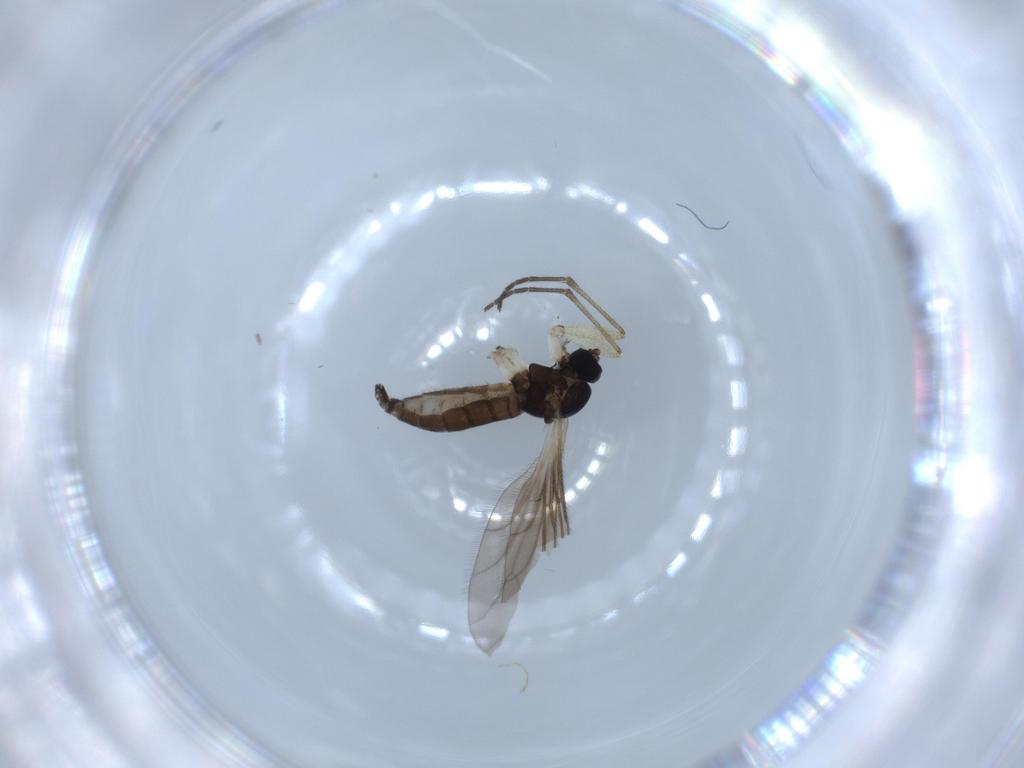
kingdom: Animalia
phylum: Arthropoda
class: Insecta
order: Diptera
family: Sciaridae
